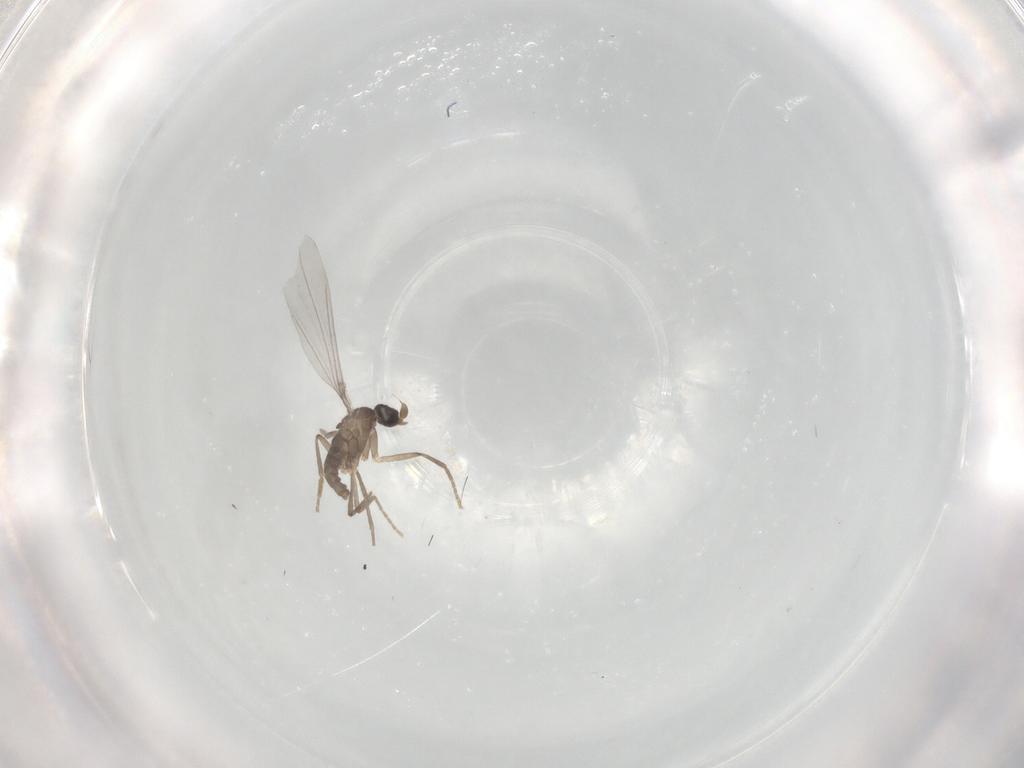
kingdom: Animalia
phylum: Arthropoda
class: Insecta
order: Diptera
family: Phoridae
